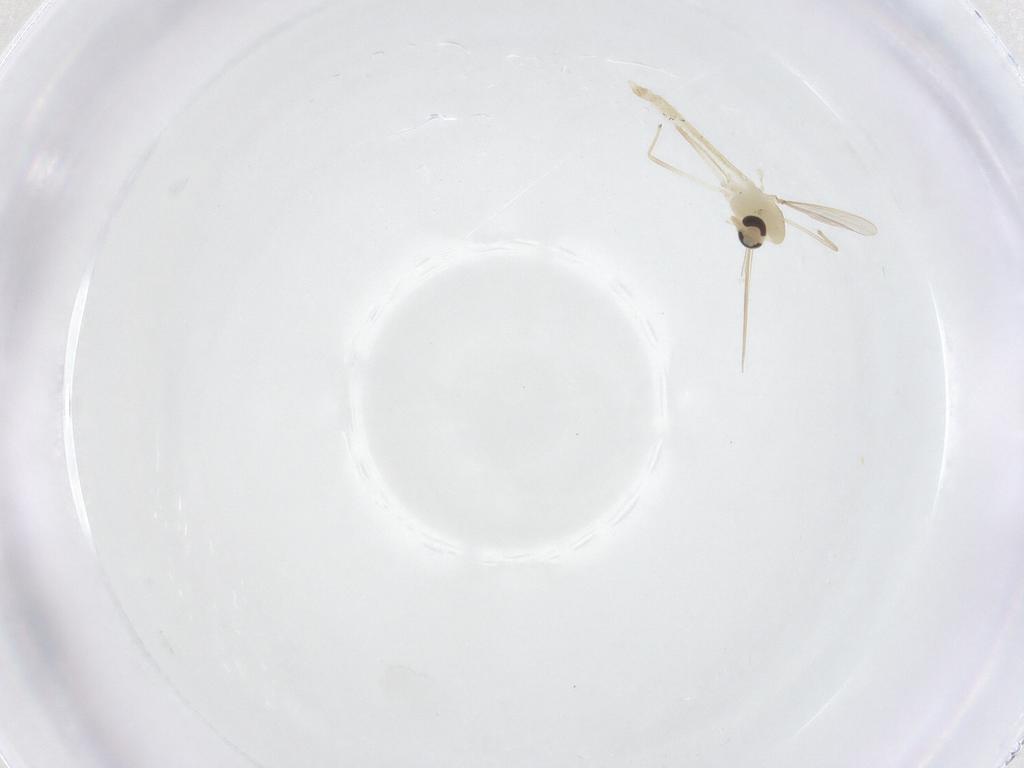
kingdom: Animalia
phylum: Arthropoda
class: Insecta
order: Diptera
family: Chironomidae
